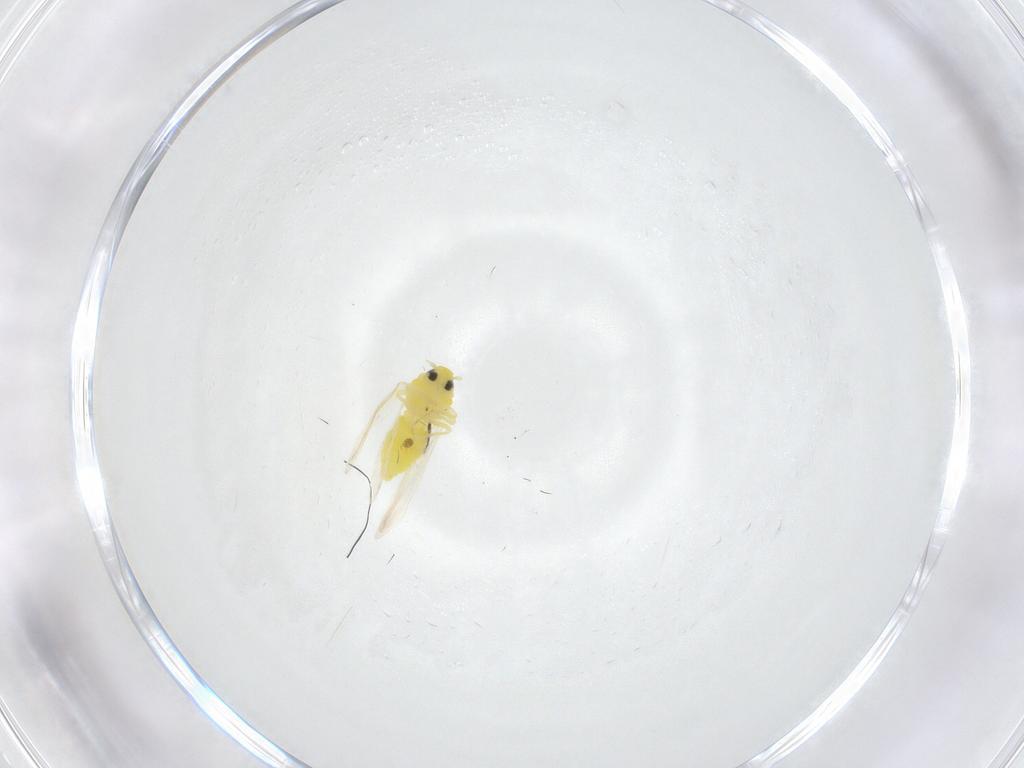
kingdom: Animalia
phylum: Arthropoda
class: Insecta
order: Hemiptera
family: Aleyrodidae
